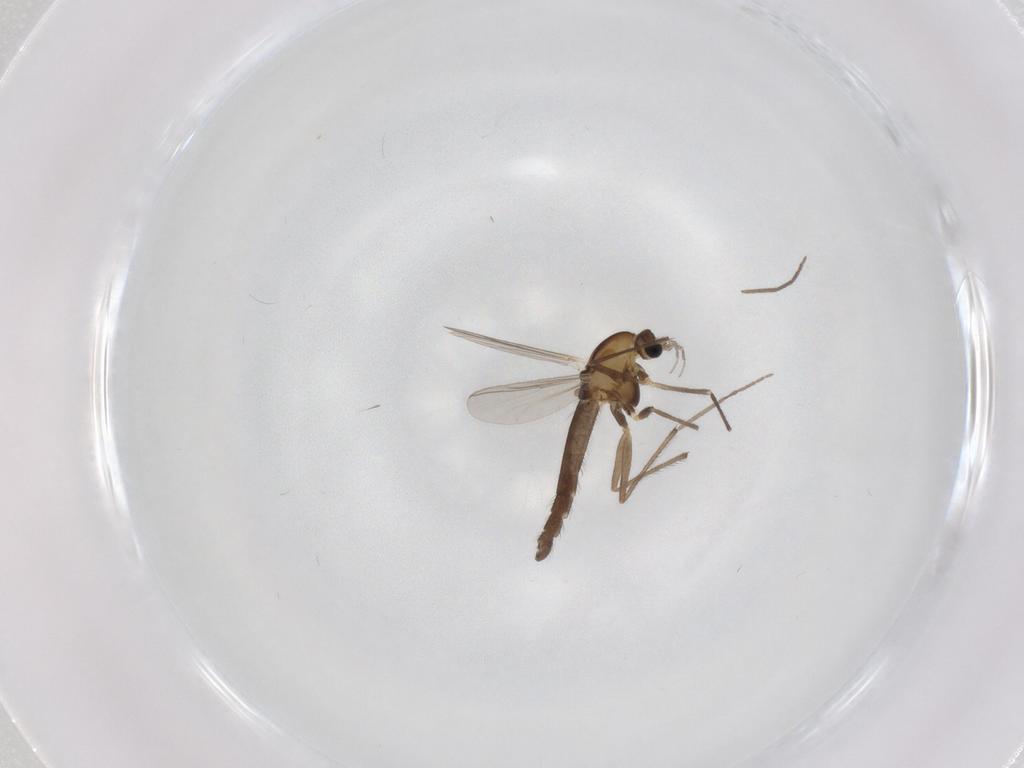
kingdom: Animalia
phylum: Arthropoda
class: Insecta
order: Diptera
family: Chironomidae
